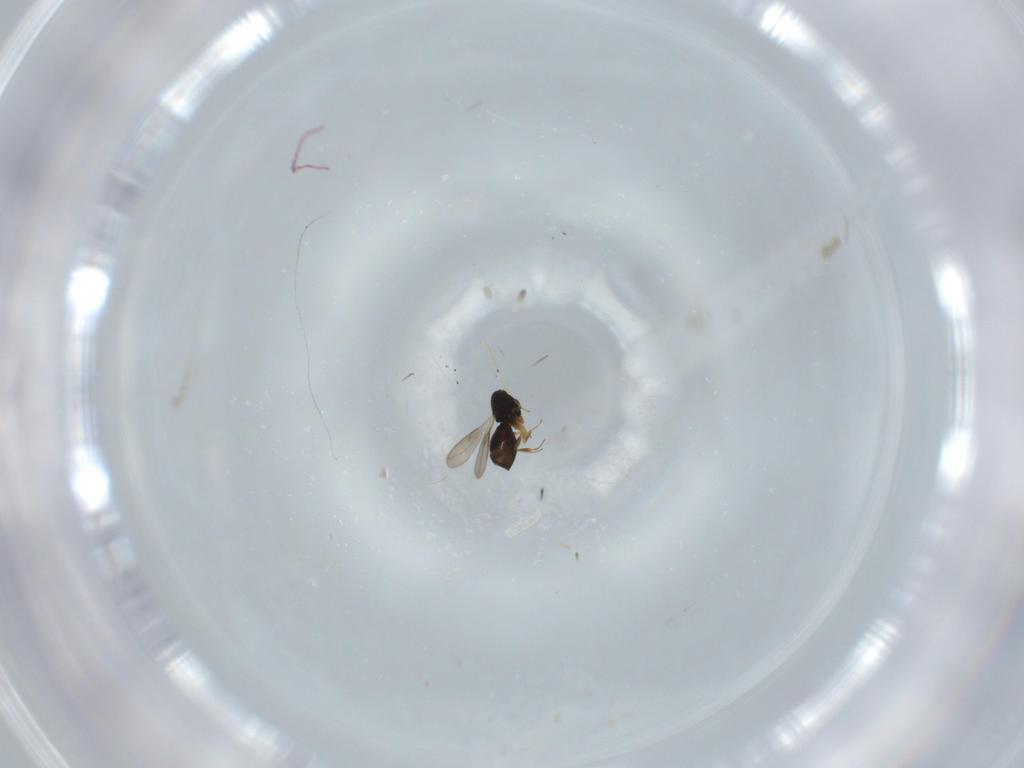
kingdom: Animalia
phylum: Arthropoda
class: Insecta
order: Hymenoptera
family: Scelionidae
